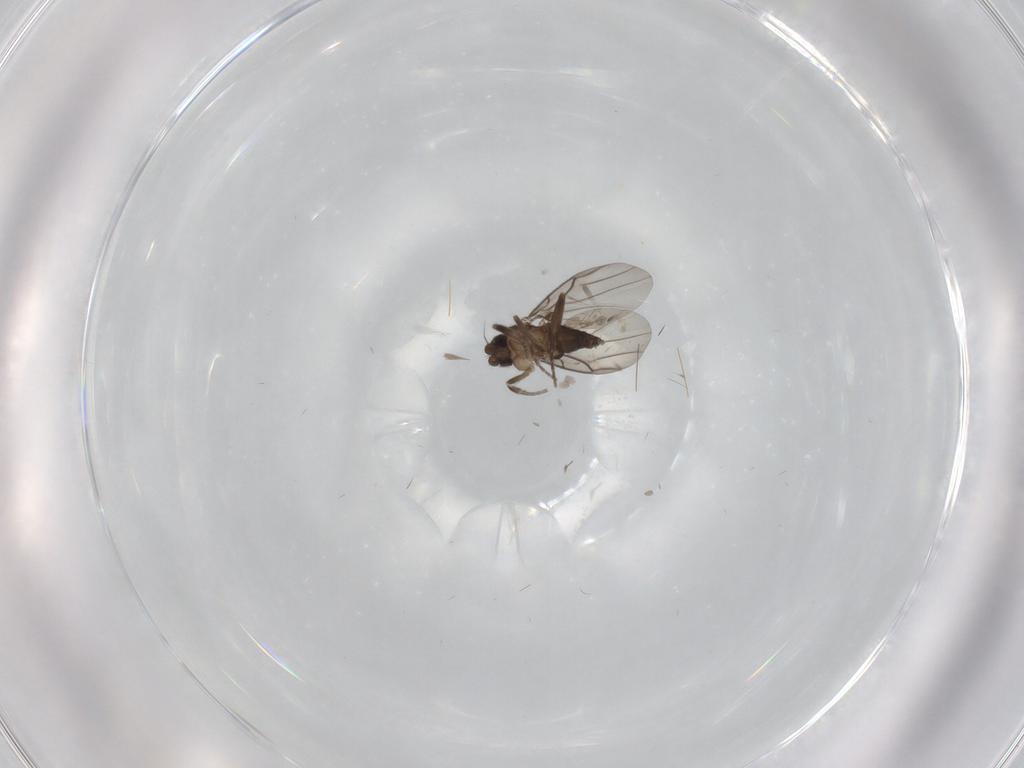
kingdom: Animalia
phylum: Arthropoda
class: Insecta
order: Diptera
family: Phoridae
